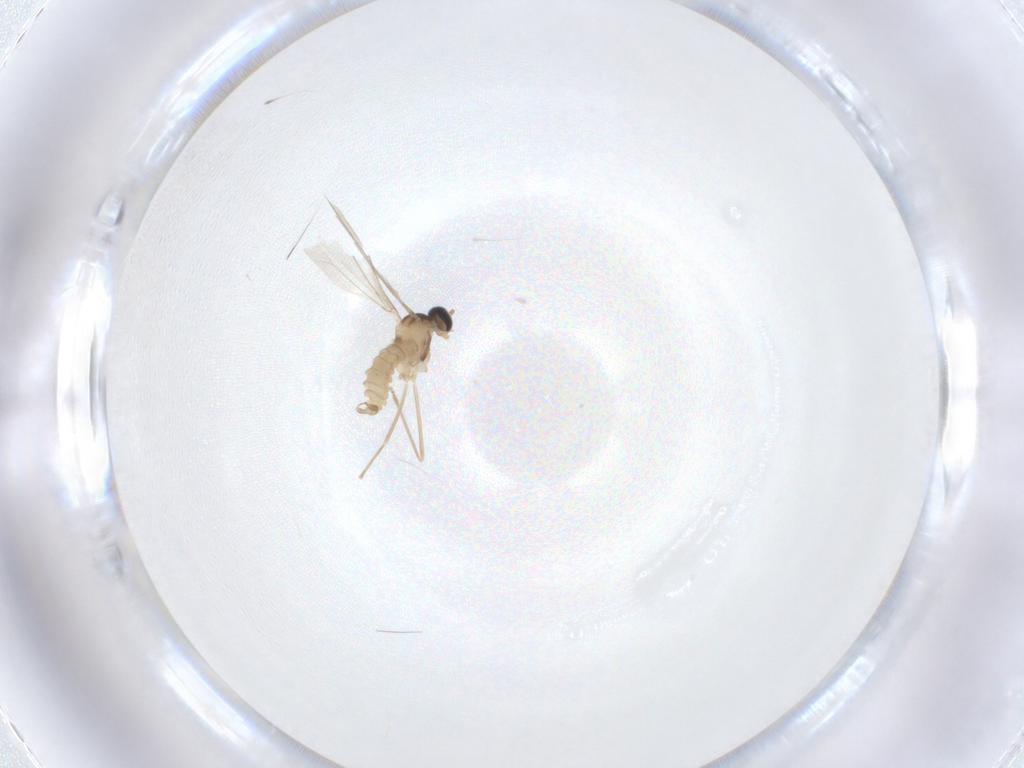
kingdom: Animalia
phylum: Arthropoda
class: Insecta
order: Diptera
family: Cecidomyiidae
